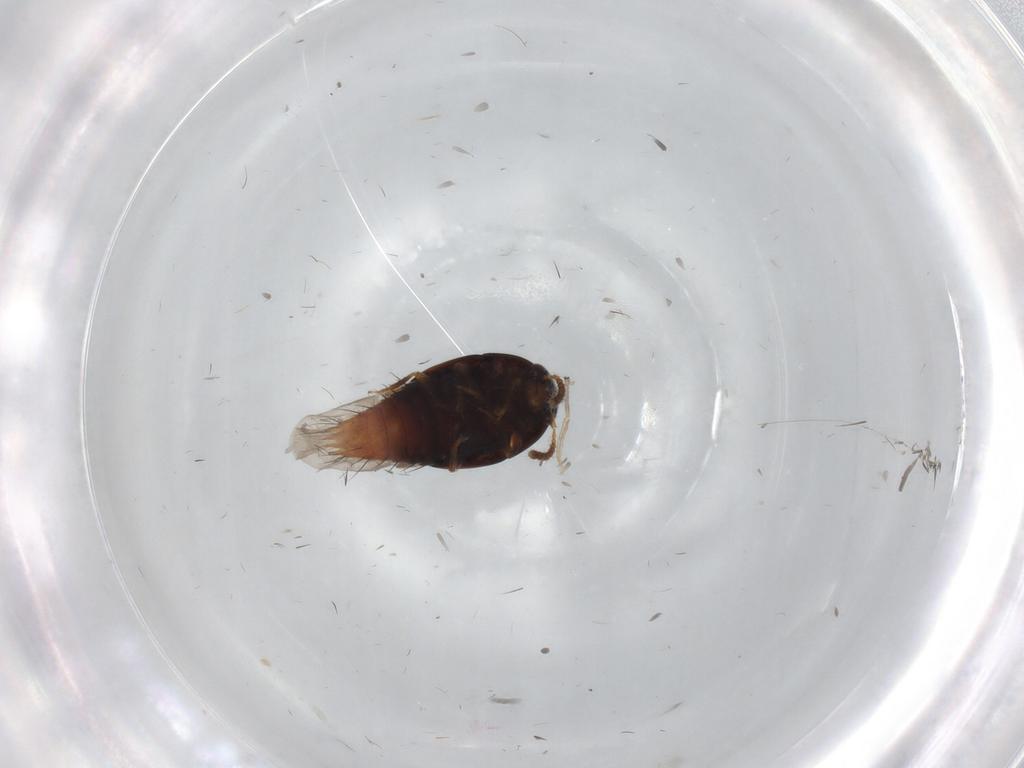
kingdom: Animalia
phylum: Arthropoda
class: Insecta
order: Coleoptera
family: Staphylinidae
